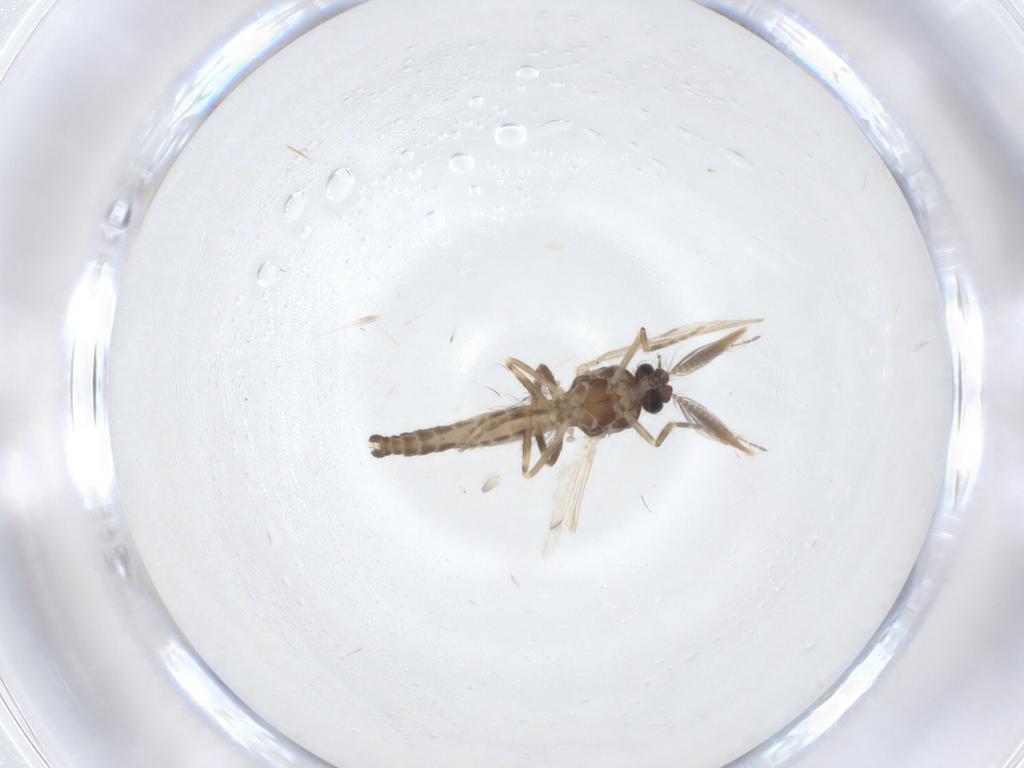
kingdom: Animalia
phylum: Arthropoda
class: Insecta
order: Diptera
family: Ceratopogonidae
